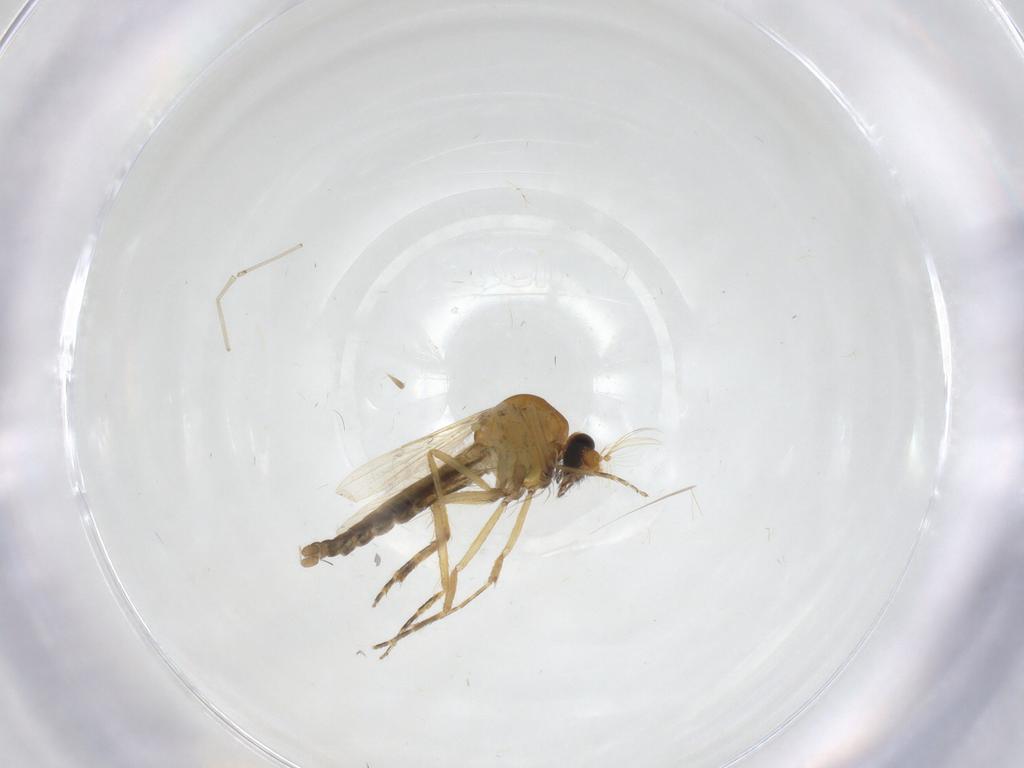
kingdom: Animalia
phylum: Arthropoda
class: Insecta
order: Diptera
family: Ceratopogonidae
